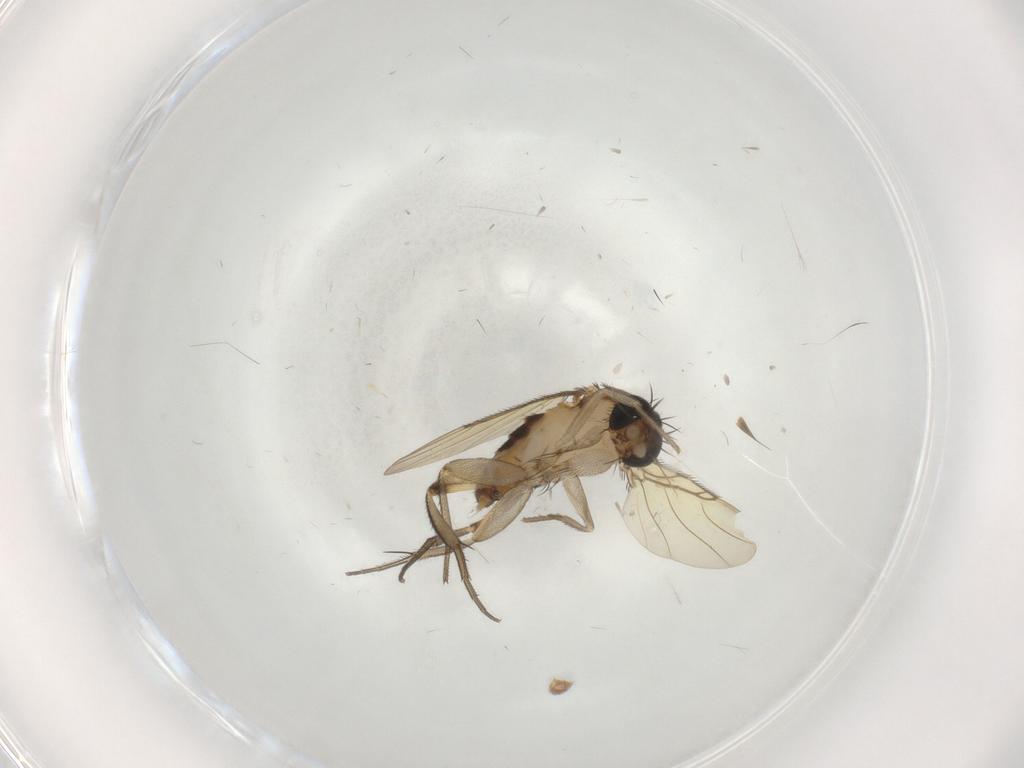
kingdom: Animalia
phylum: Arthropoda
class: Insecta
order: Diptera
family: Phoridae
